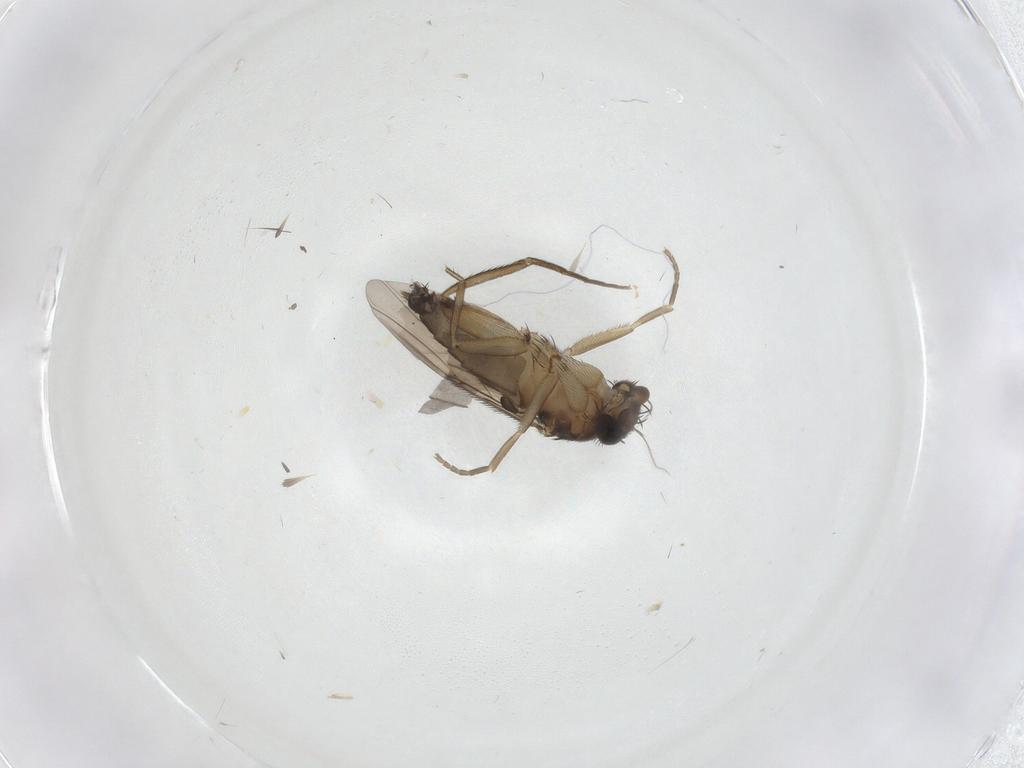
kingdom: Animalia
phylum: Arthropoda
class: Insecta
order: Diptera
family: Phoridae
